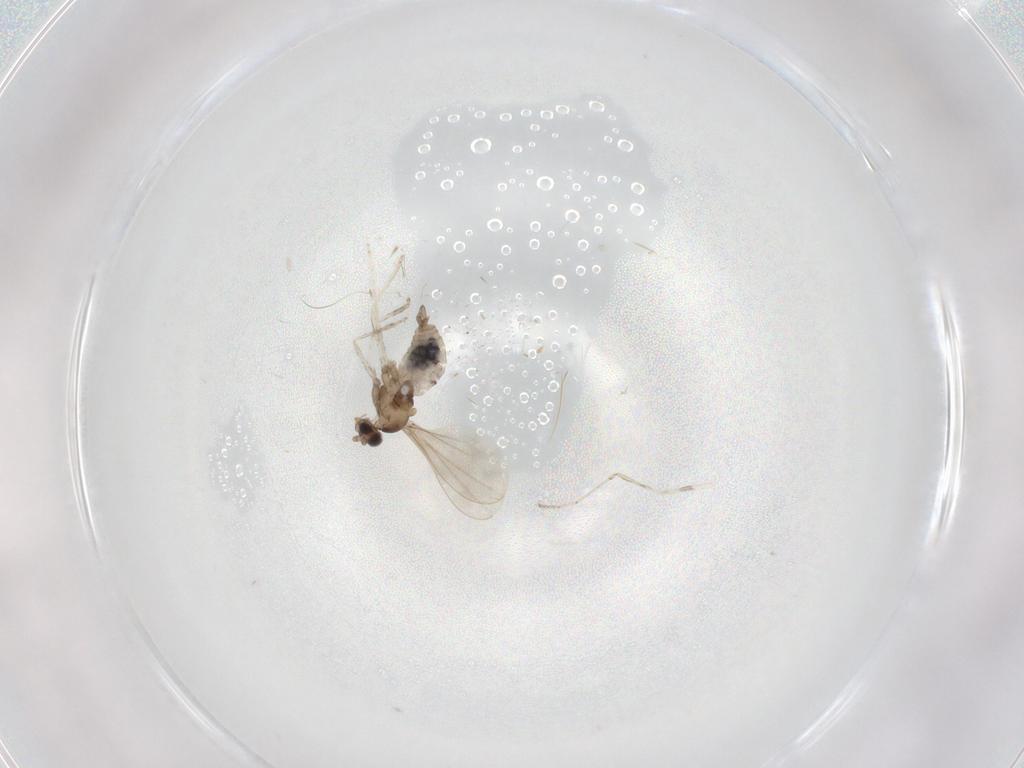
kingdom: Animalia
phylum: Arthropoda
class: Insecta
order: Diptera
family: Cecidomyiidae
